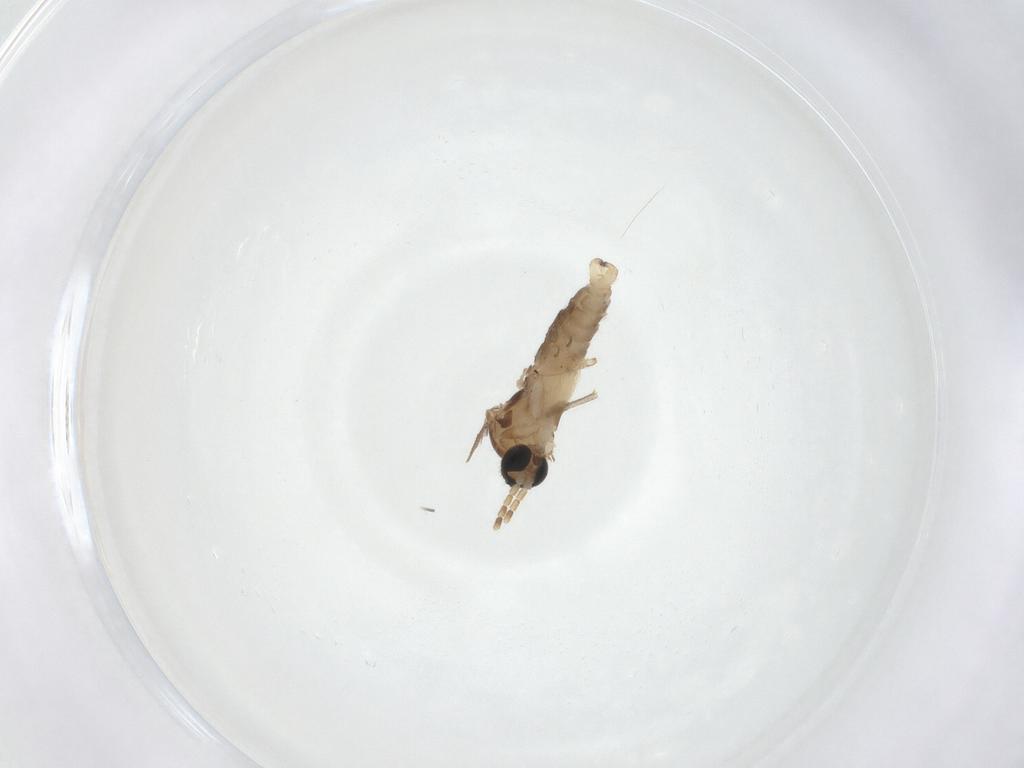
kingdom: Animalia
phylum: Arthropoda
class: Insecta
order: Diptera
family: Sciaridae
